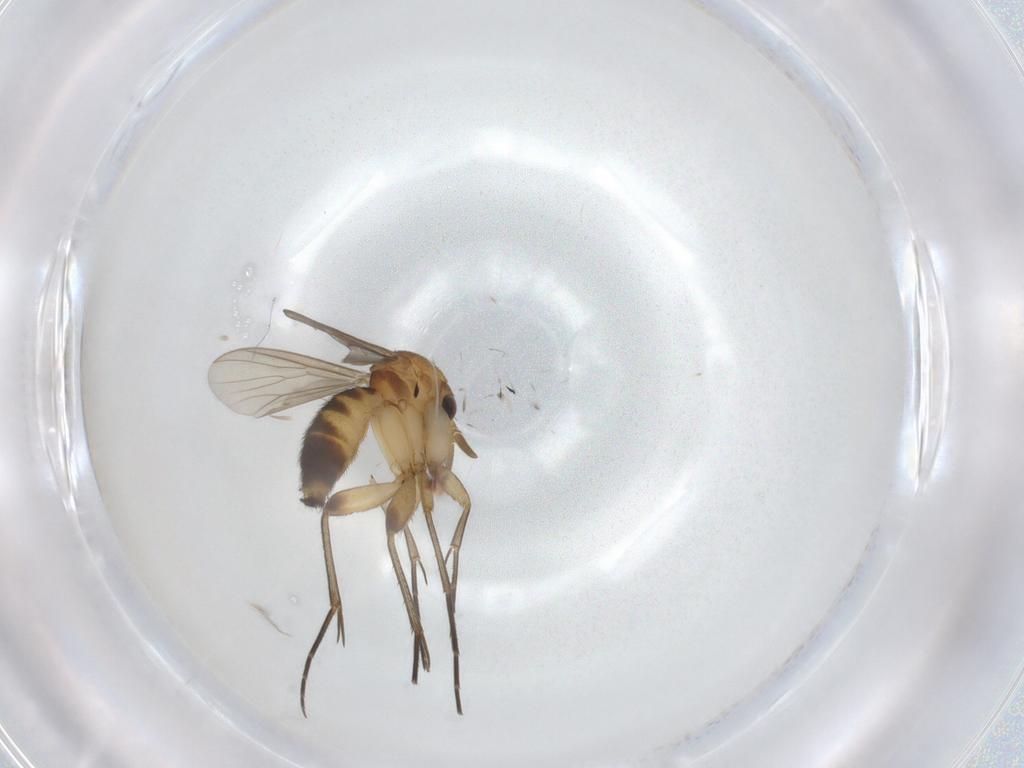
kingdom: Animalia
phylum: Arthropoda
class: Insecta
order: Diptera
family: Mycetophilidae
